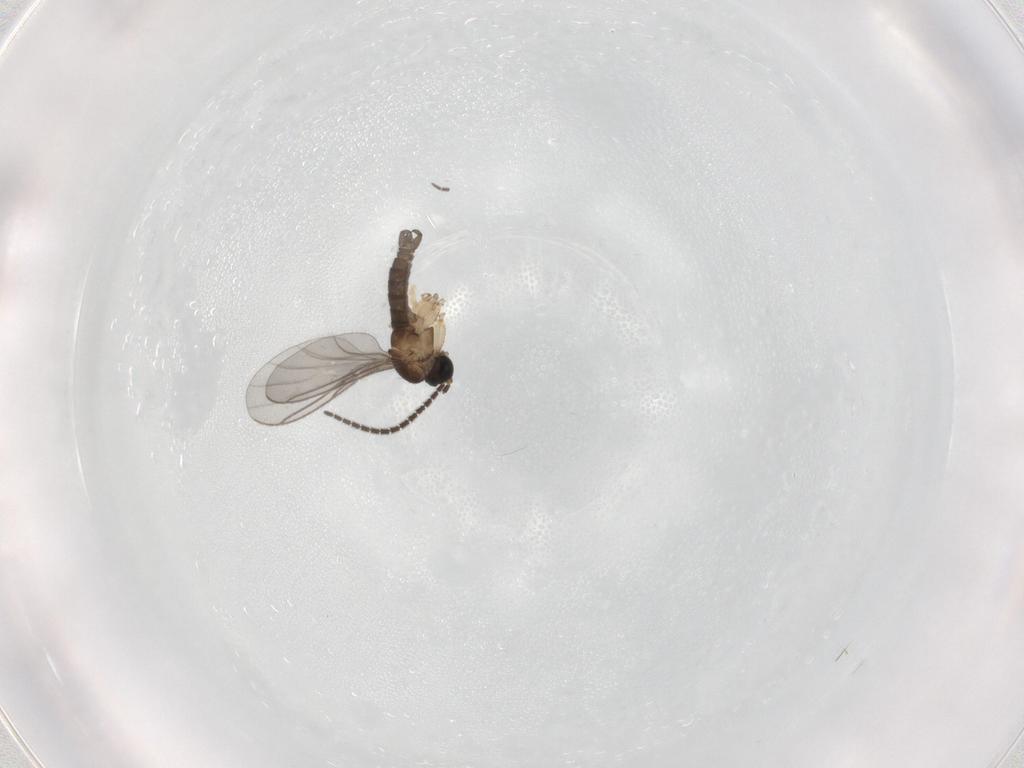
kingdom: Animalia
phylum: Arthropoda
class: Insecta
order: Diptera
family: Sciaridae
